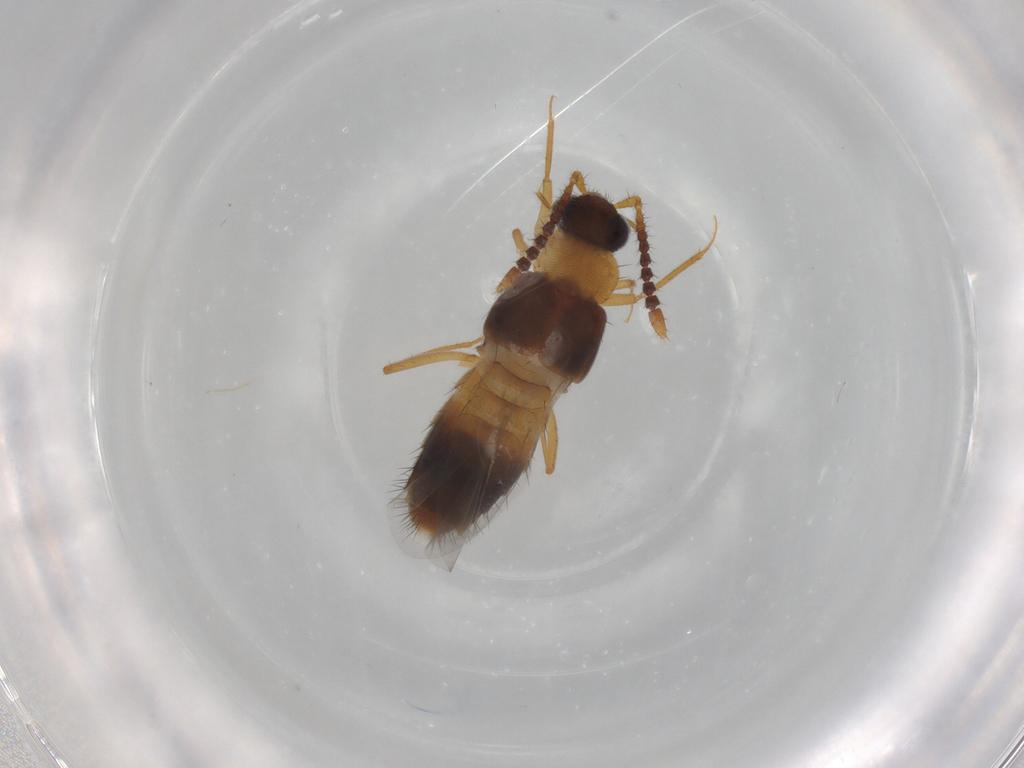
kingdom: Animalia
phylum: Arthropoda
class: Insecta
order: Coleoptera
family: Staphylinidae
